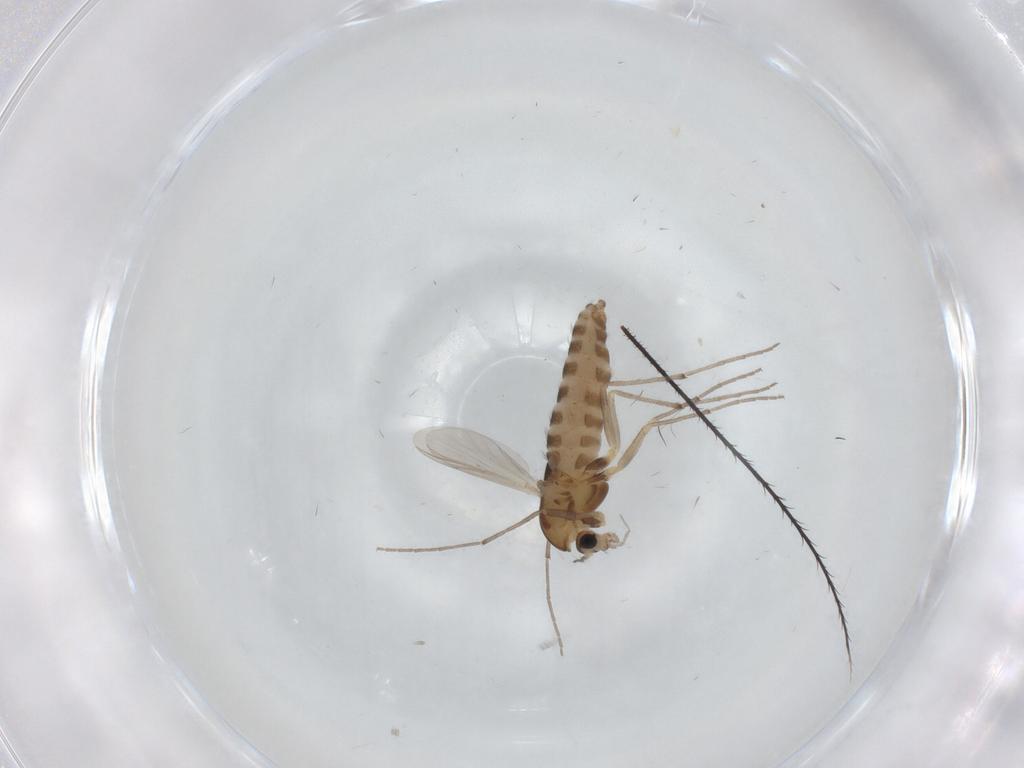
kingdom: Animalia
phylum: Arthropoda
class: Insecta
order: Diptera
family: Chironomidae
